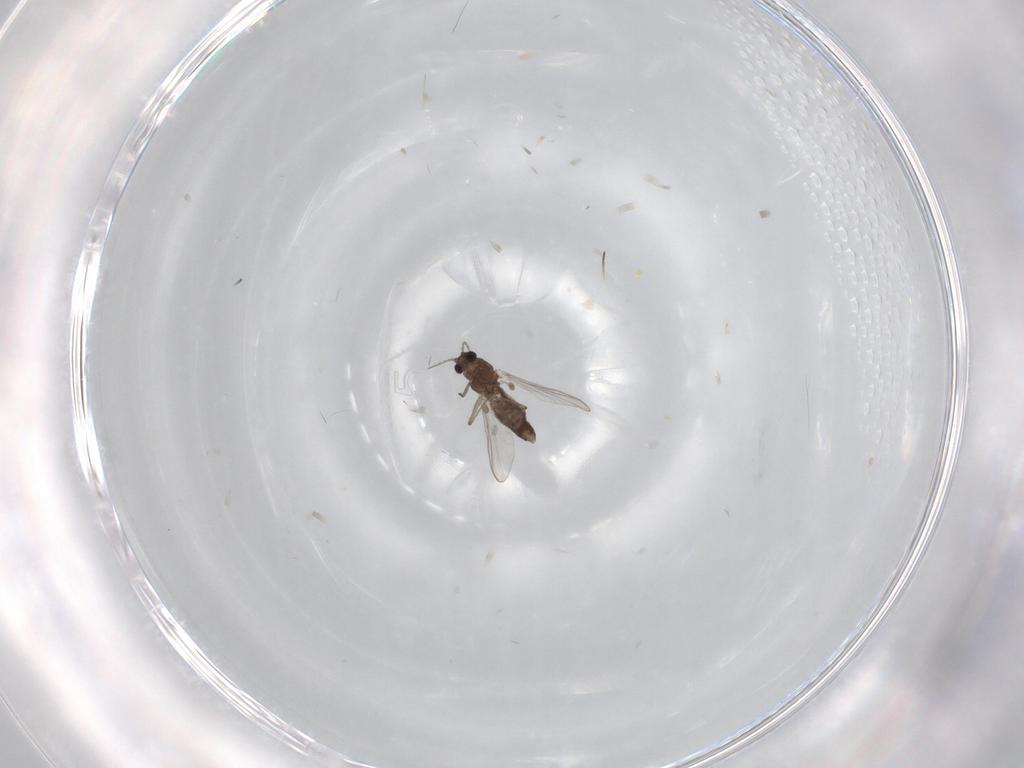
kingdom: Animalia
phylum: Arthropoda
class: Insecta
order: Diptera
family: Chironomidae
